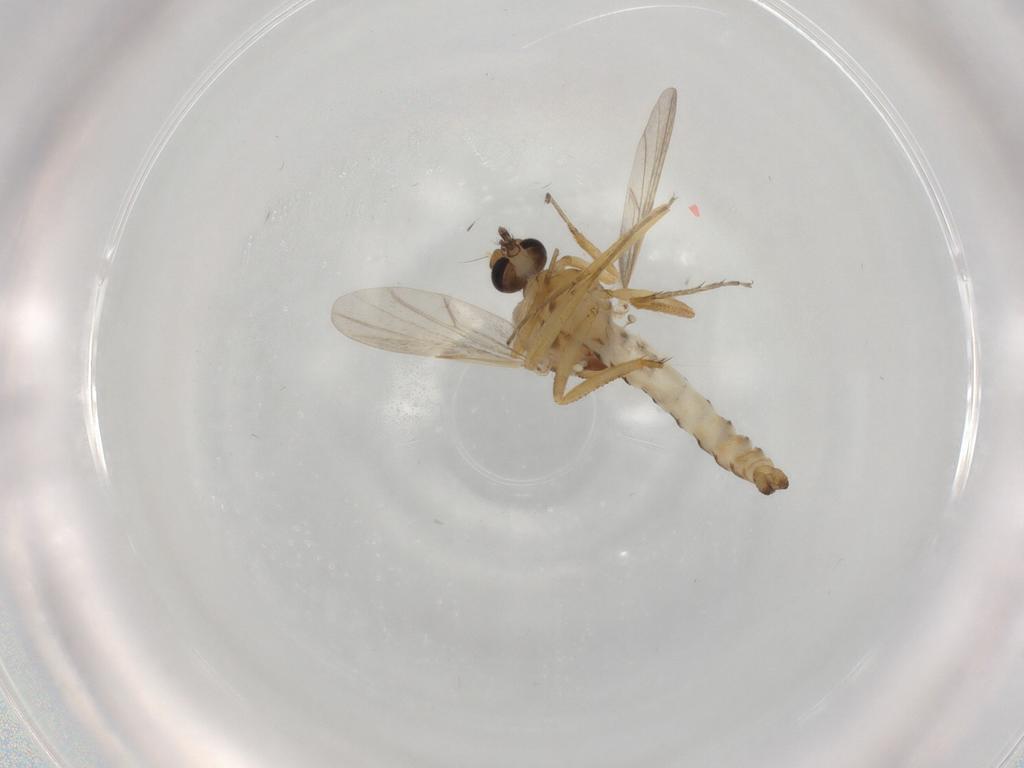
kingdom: Animalia
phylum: Arthropoda
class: Insecta
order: Diptera
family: Ceratopogonidae
